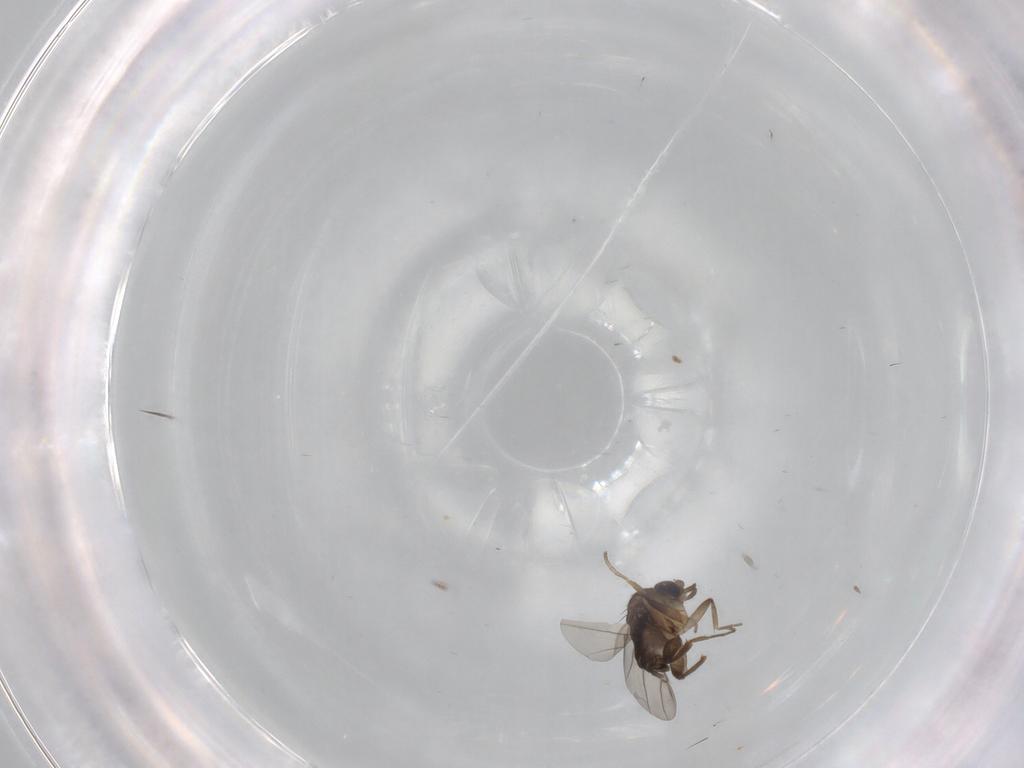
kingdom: Animalia
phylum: Arthropoda
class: Insecta
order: Diptera
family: Phoridae
